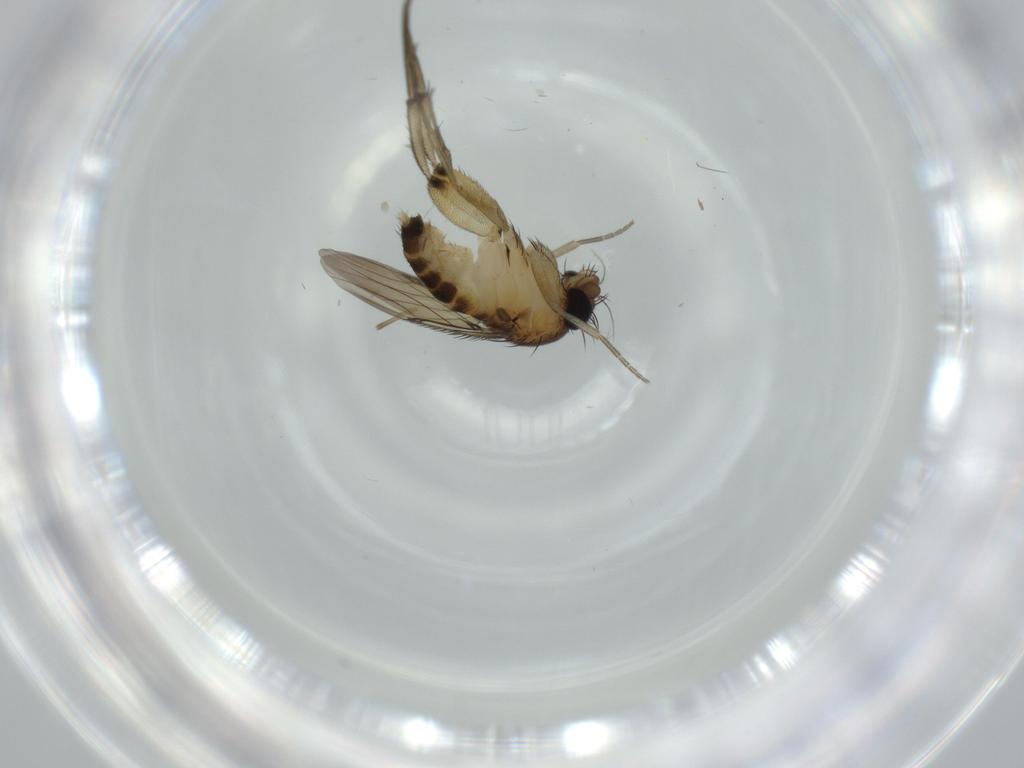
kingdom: Animalia
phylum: Arthropoda
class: Insecta
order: Diptera
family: Phoridae
